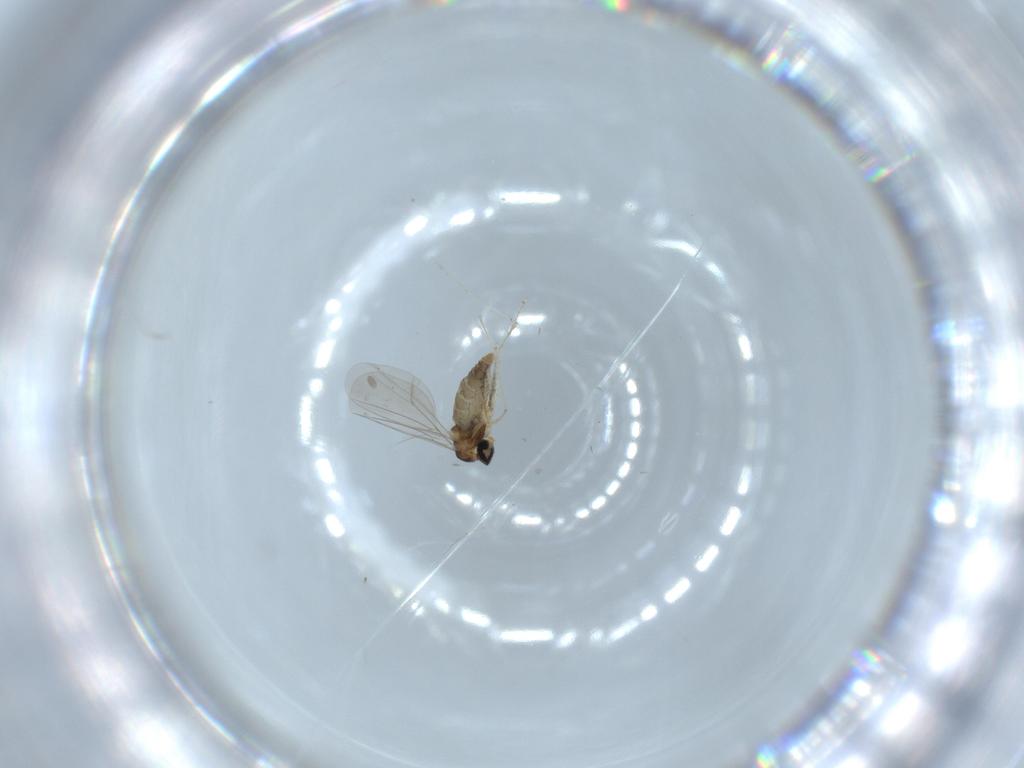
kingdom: Animalia
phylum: Arthropoda
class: Insecta
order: Diptera
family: Cecidomyiidae
